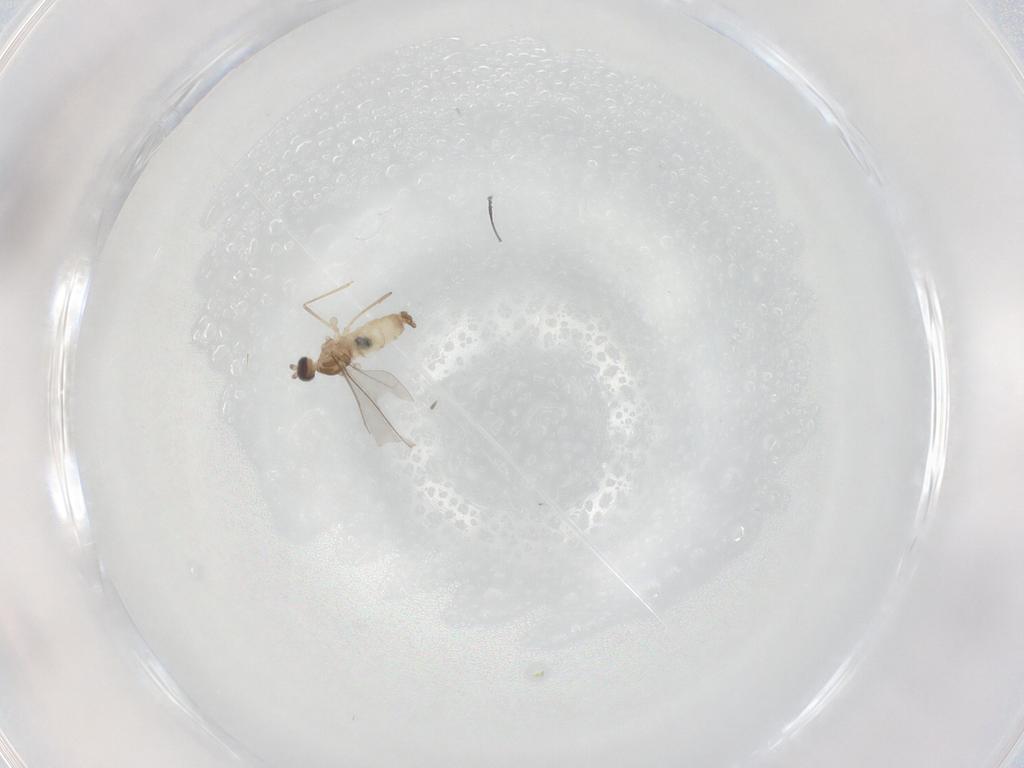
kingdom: Animalia
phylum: Arthropoda
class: Insecta
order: Diptera
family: Cecidomyiidae
